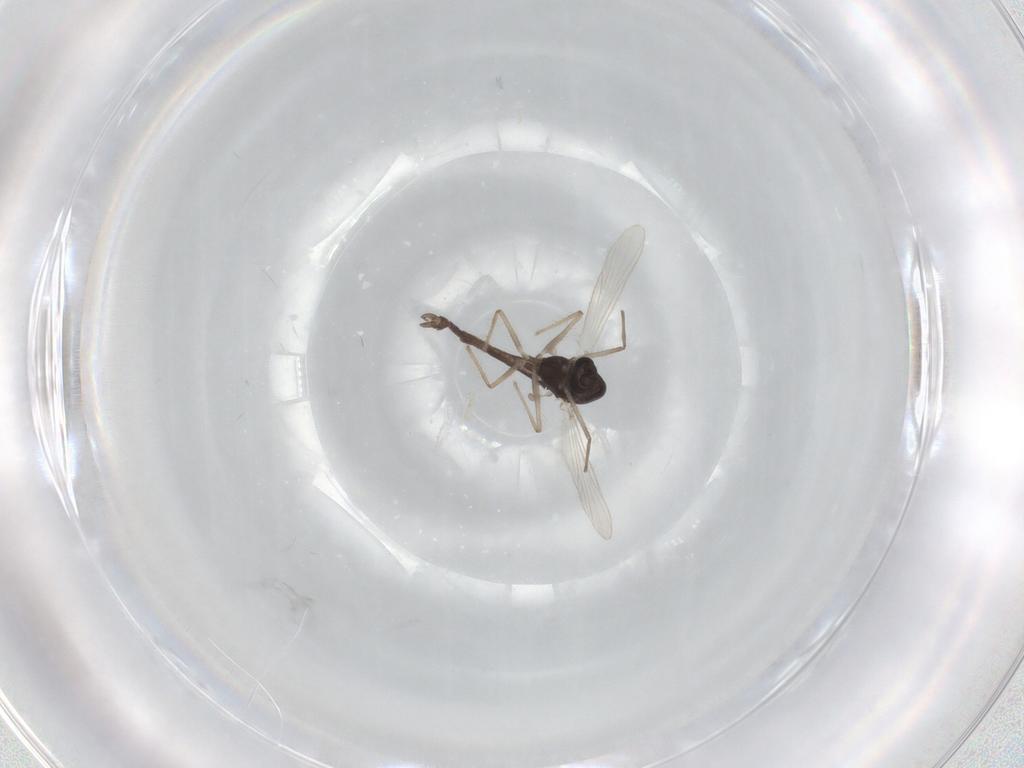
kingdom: Animalia
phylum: Arthropoda
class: Insecta
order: Diptera
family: Chironomidae
